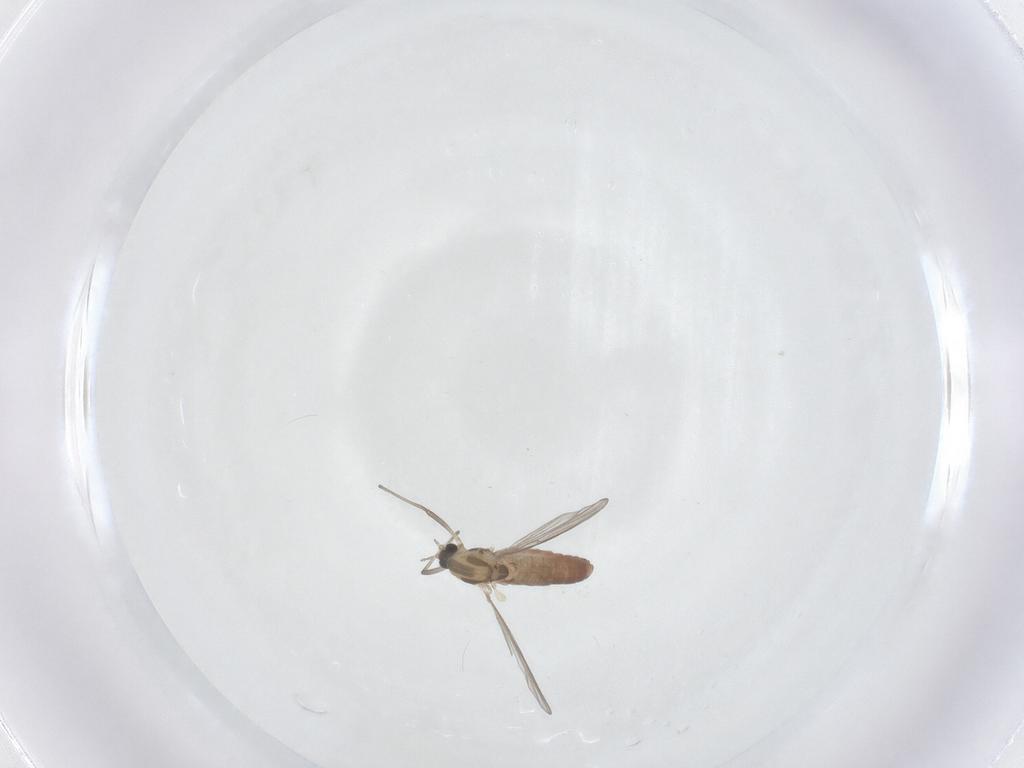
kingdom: Animalia
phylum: Arthropoda
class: Insecta
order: Diptera
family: Chironomidae
